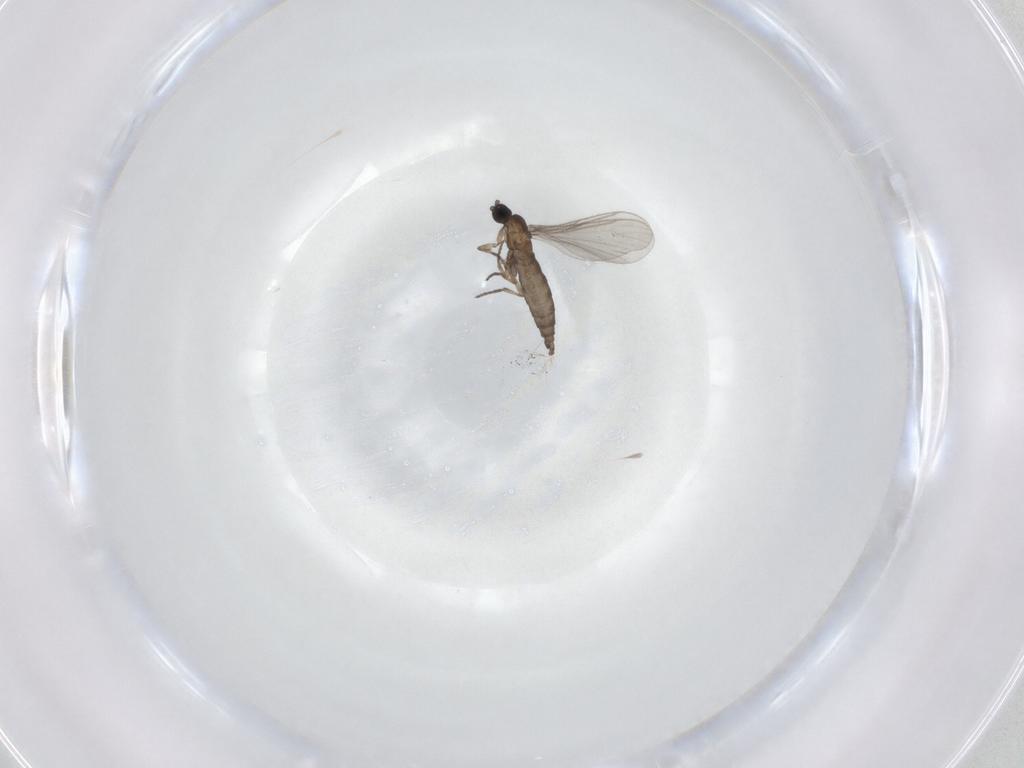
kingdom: Animalia
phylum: Arthropoda
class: Insecta
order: Diptera
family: Sciaridae
